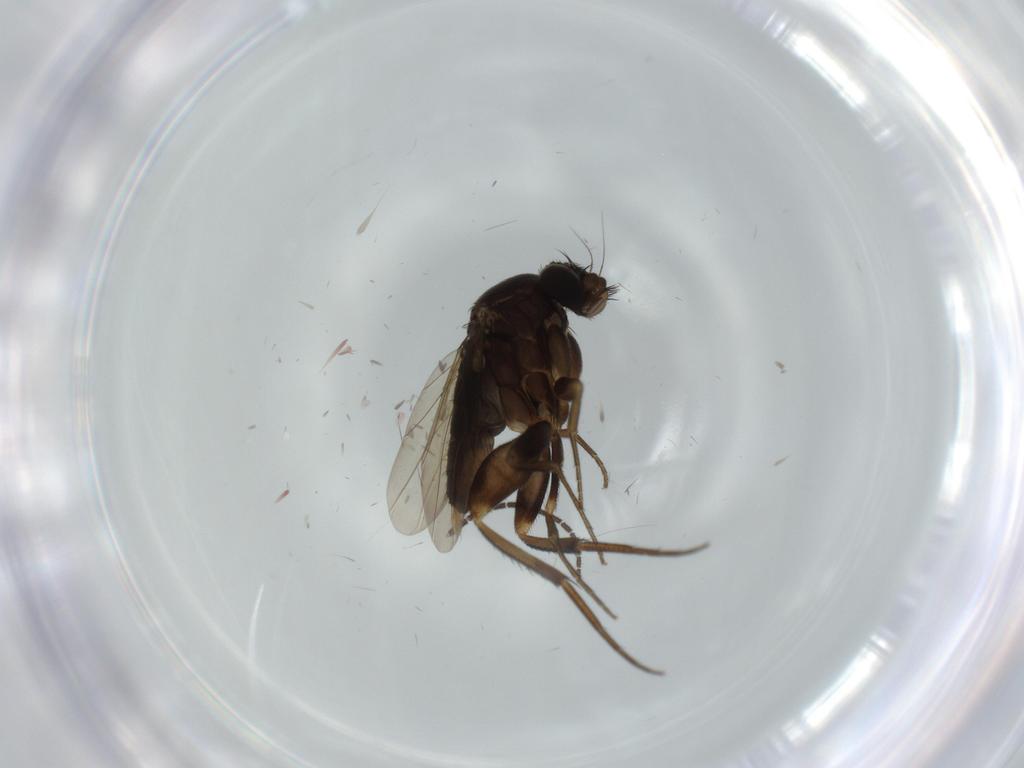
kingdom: Animalia
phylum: Arthropoda
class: Insecta
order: Diptera
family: Phoridae
